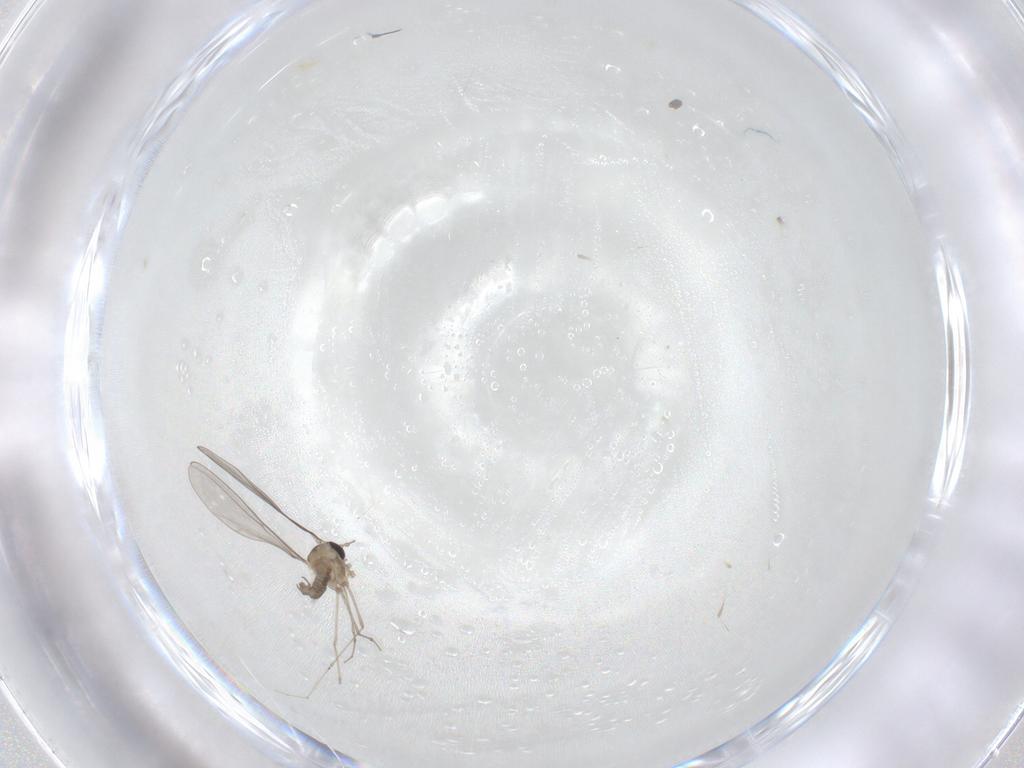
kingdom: Animalia
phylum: Arthropoda
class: Insecta
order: Diptera
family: Cecidomyiidae
